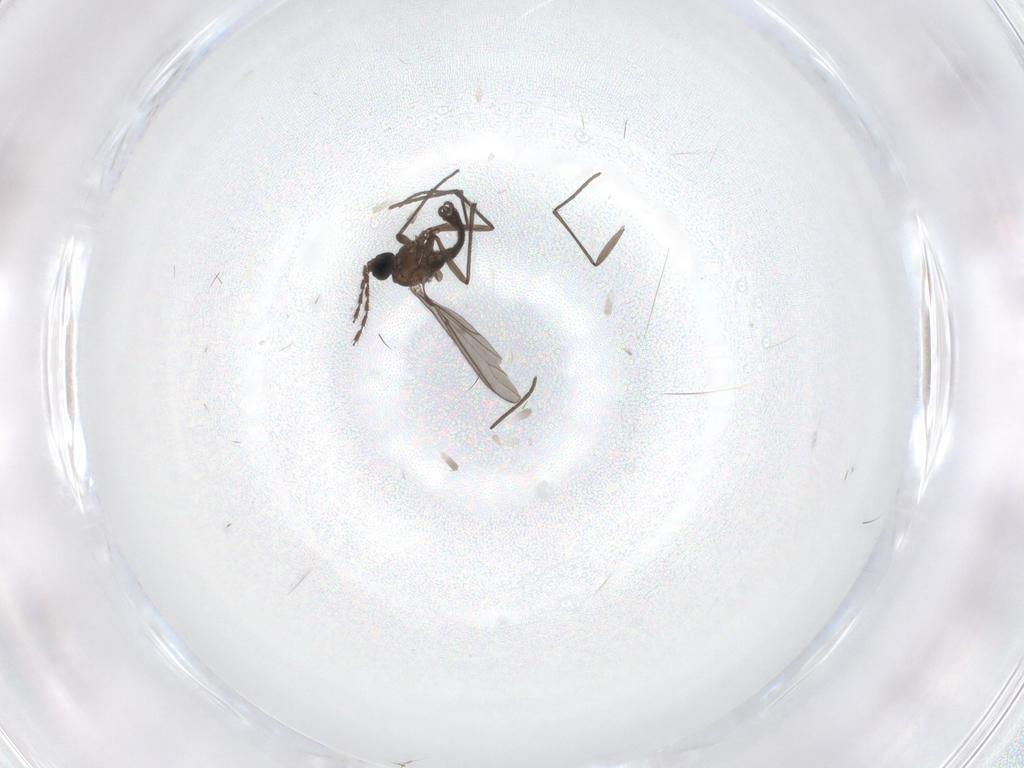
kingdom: Animalia
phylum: Arthropoda
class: Insecta
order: Diptera
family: Sciaridae
